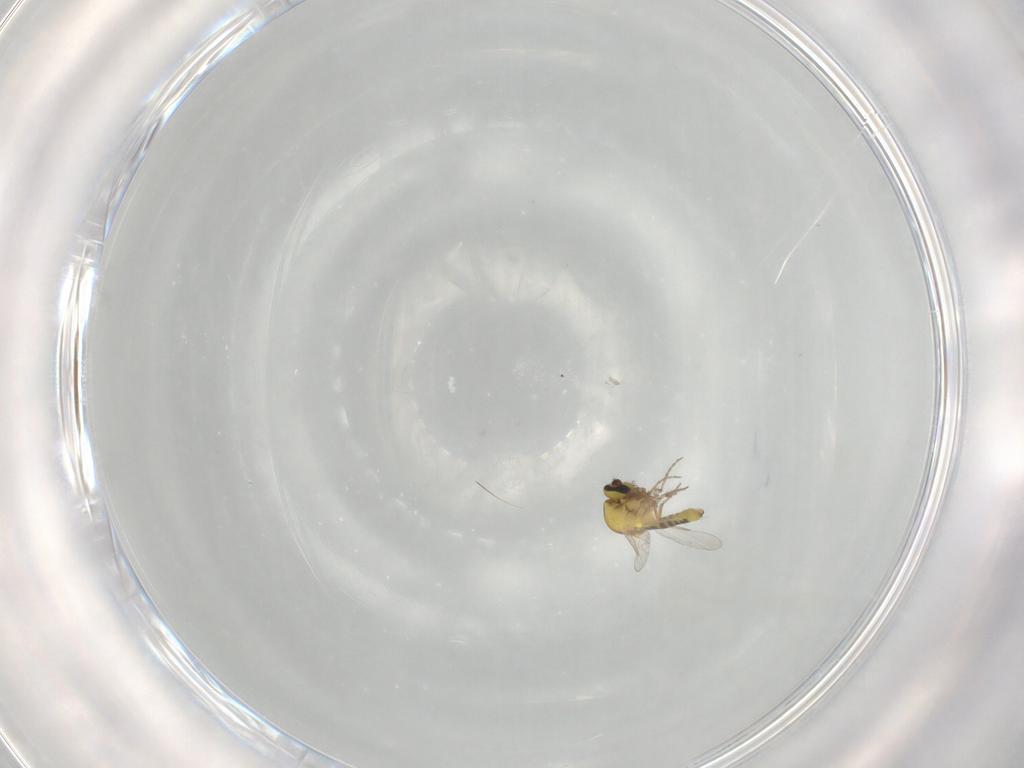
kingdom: Animalia
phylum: Arthropoda
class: Insecta
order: Diptera
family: Ceratopogonidae
